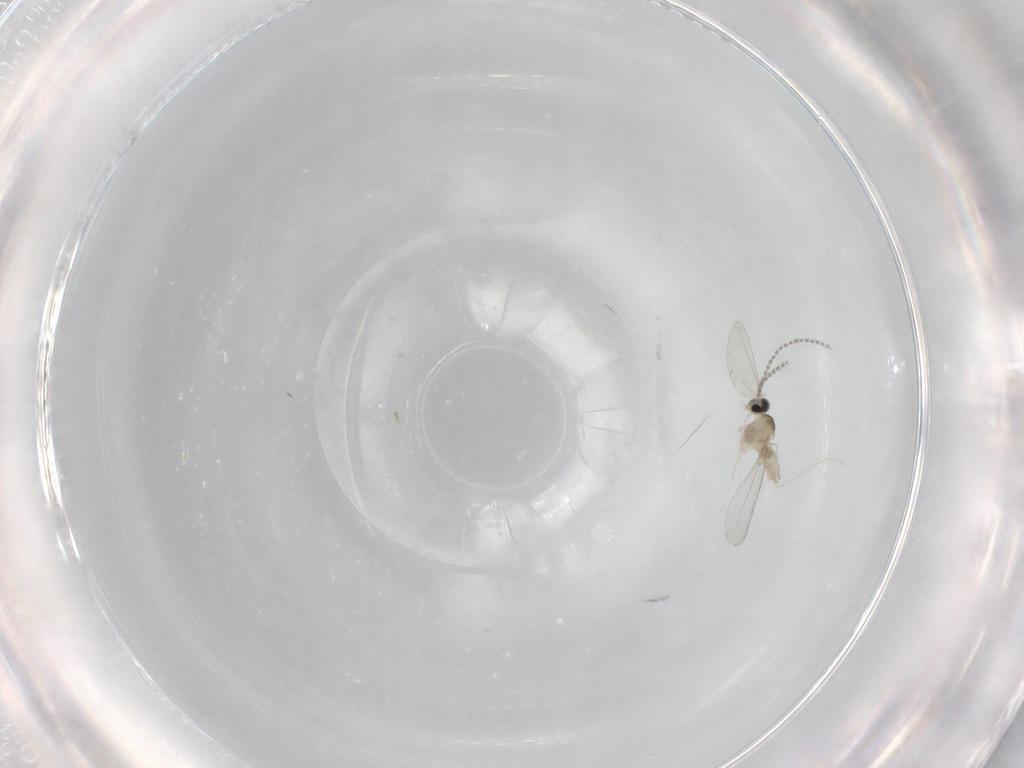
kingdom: Animalia
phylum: Arthropoda
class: Insecta
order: Diptera
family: Cecidomyiidae
